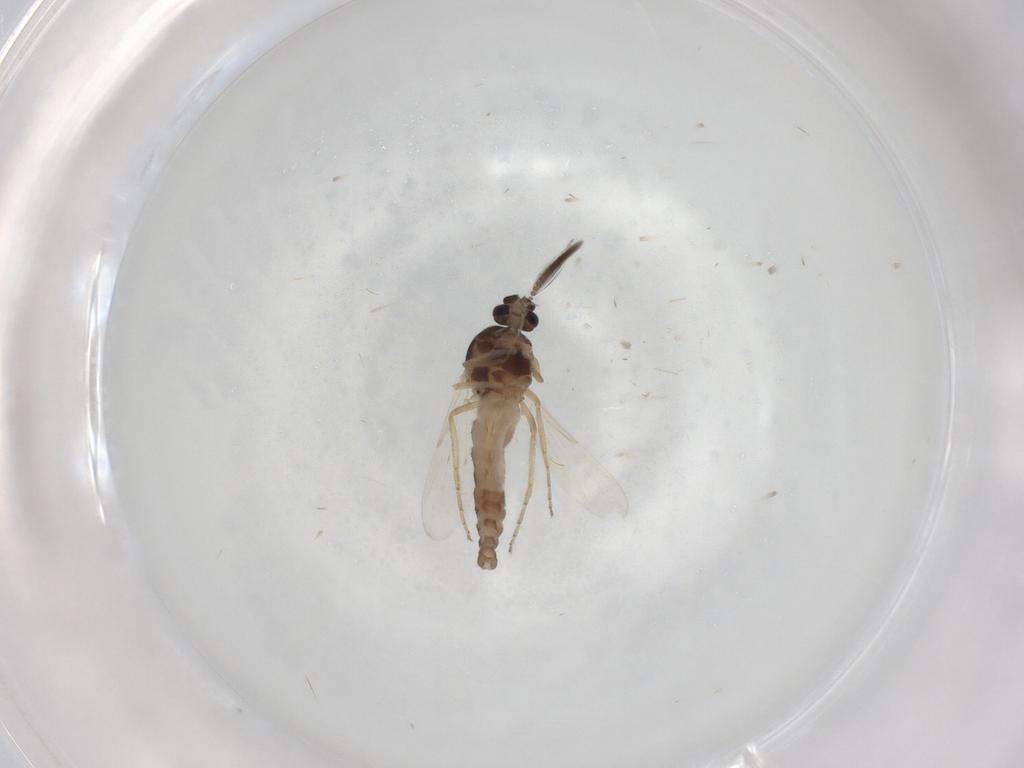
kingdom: Animalia
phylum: Arthropoda
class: Insecta
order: Diptera
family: Ceratopogonidae
